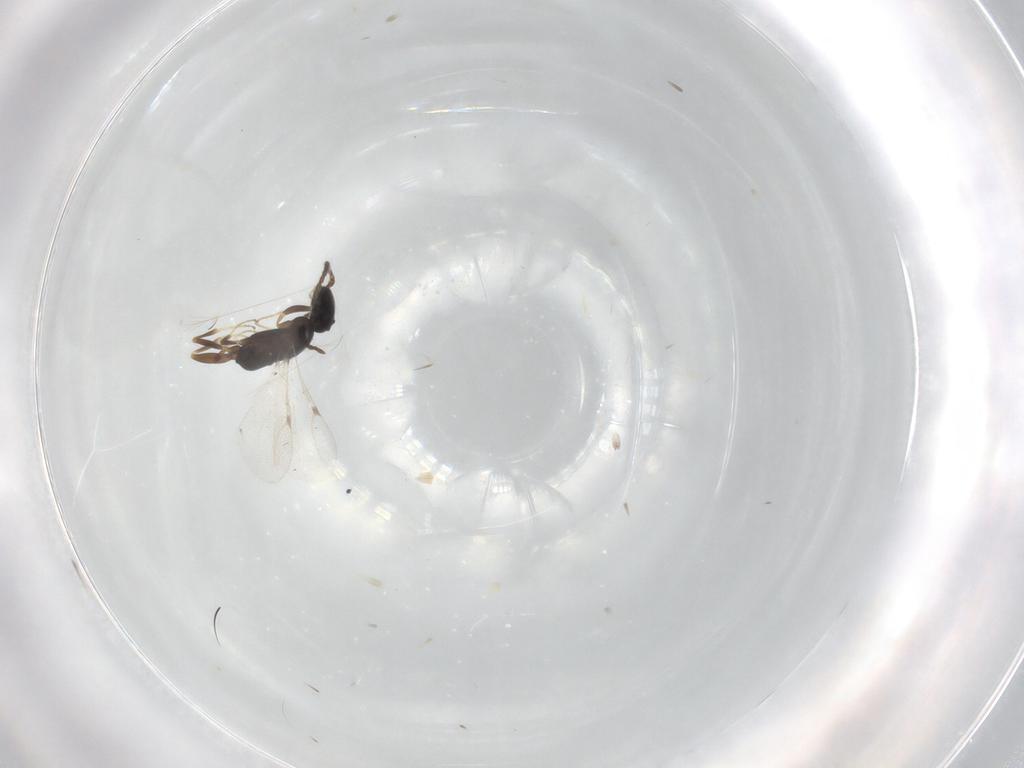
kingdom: Animalia
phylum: Arthropoda
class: Insecta
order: Hymenoptera
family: Bethylidae
